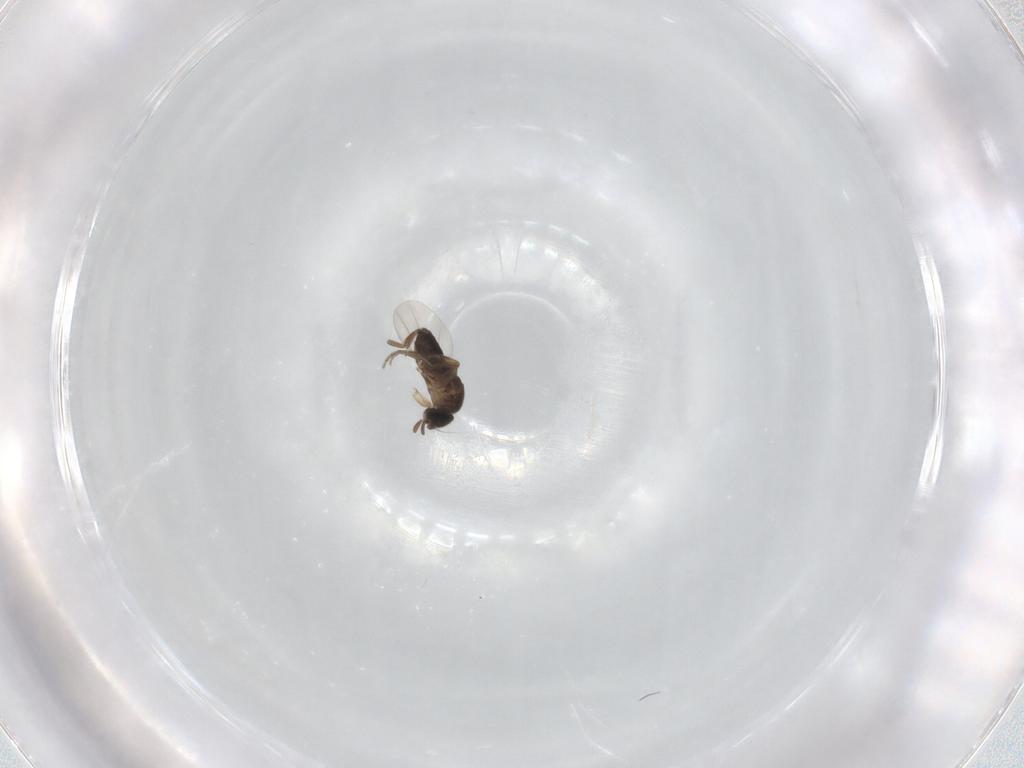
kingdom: Animalia
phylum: Arthropoda
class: Insecta
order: Diptera
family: Phoridae
